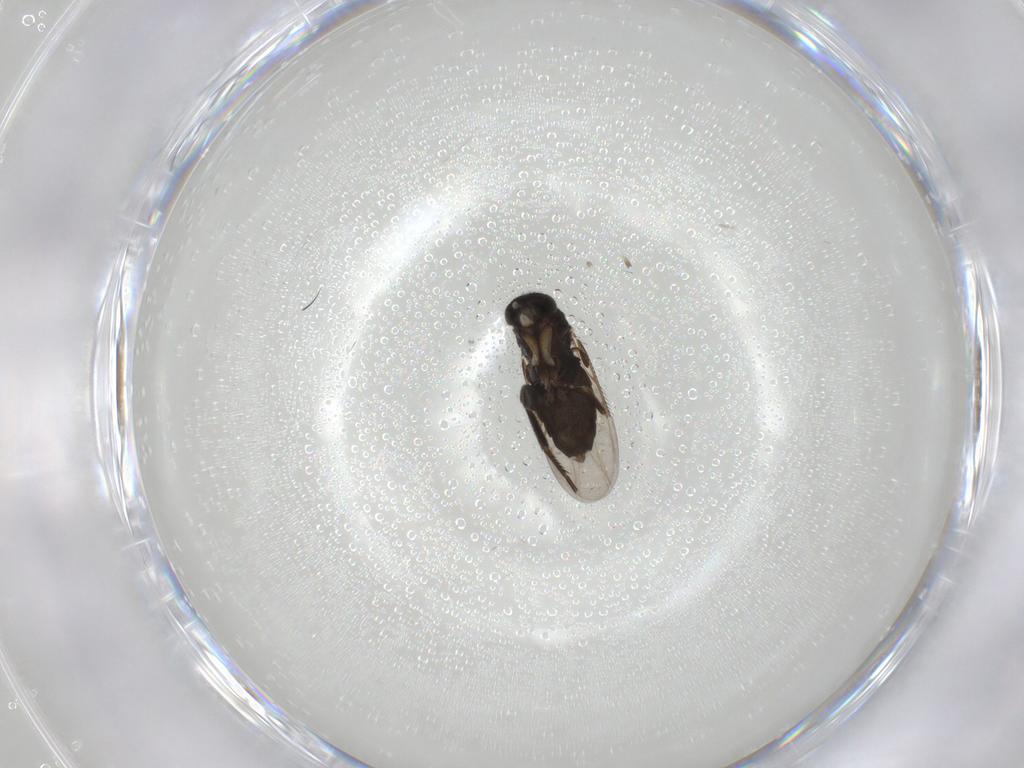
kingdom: Animalia
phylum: Arthropoda
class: Insecta
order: Diptera
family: Phoridae
